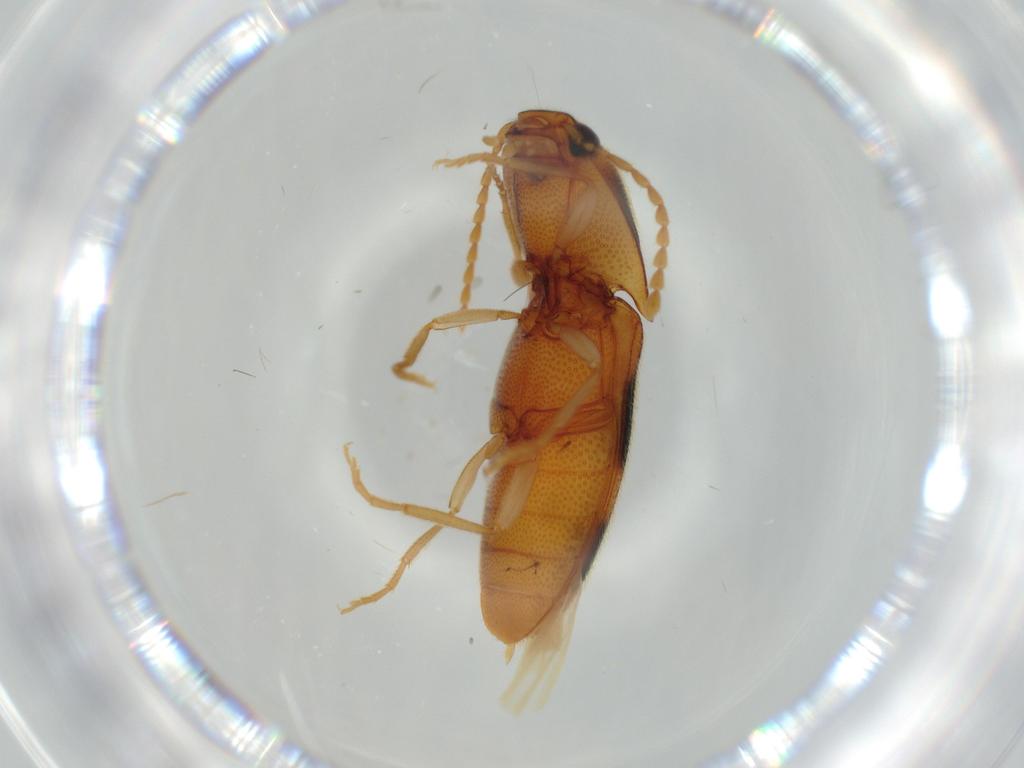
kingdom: Animalia
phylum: Arthropoda
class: Insecta
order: Coleoptera
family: Elateridae
